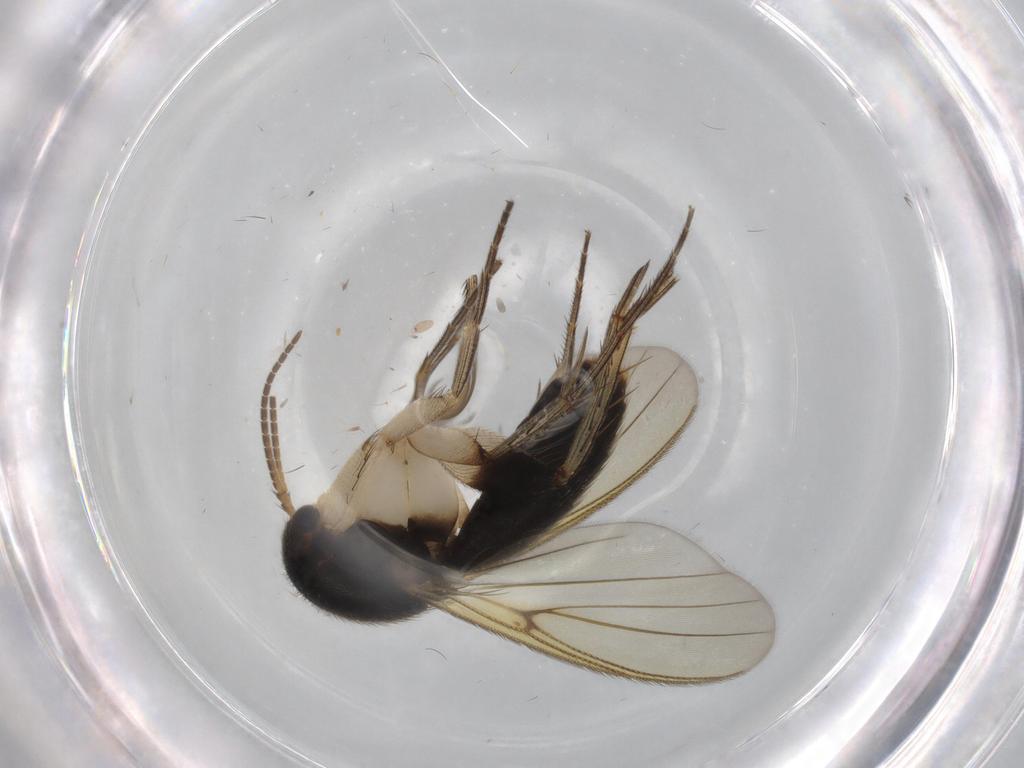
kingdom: Animalia
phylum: Arthropoda
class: Insecta
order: Diptera
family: Mycetophilidae
